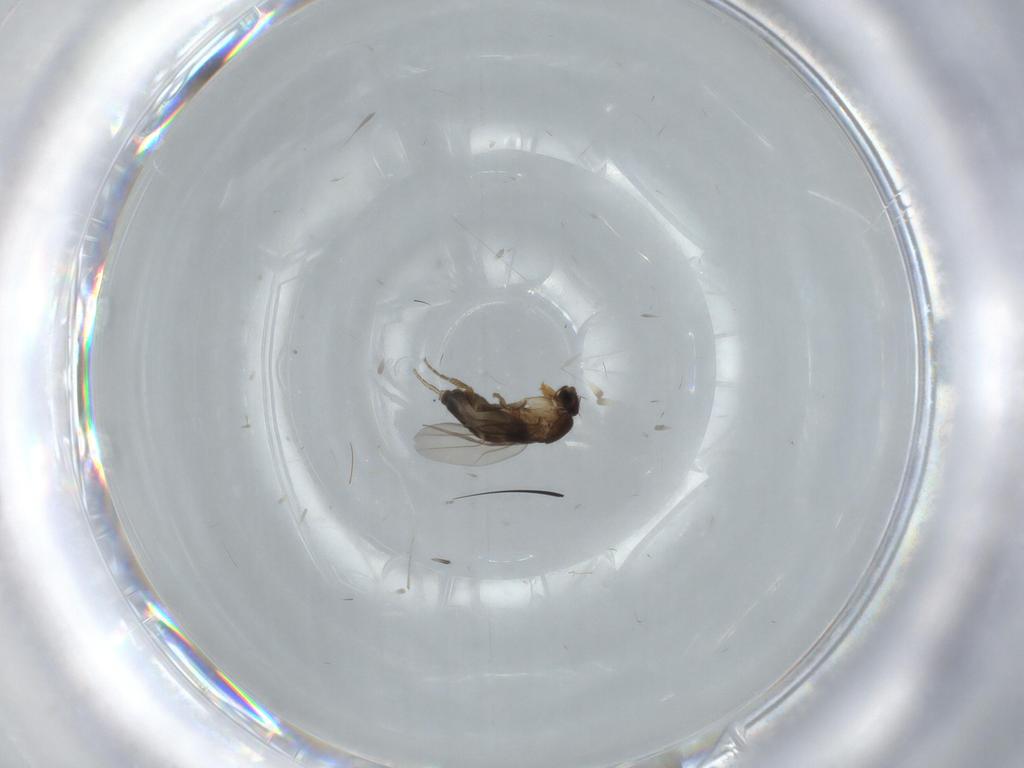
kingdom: Animalia
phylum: Arthropoda
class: Insecta
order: Diptera
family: Phoridae
